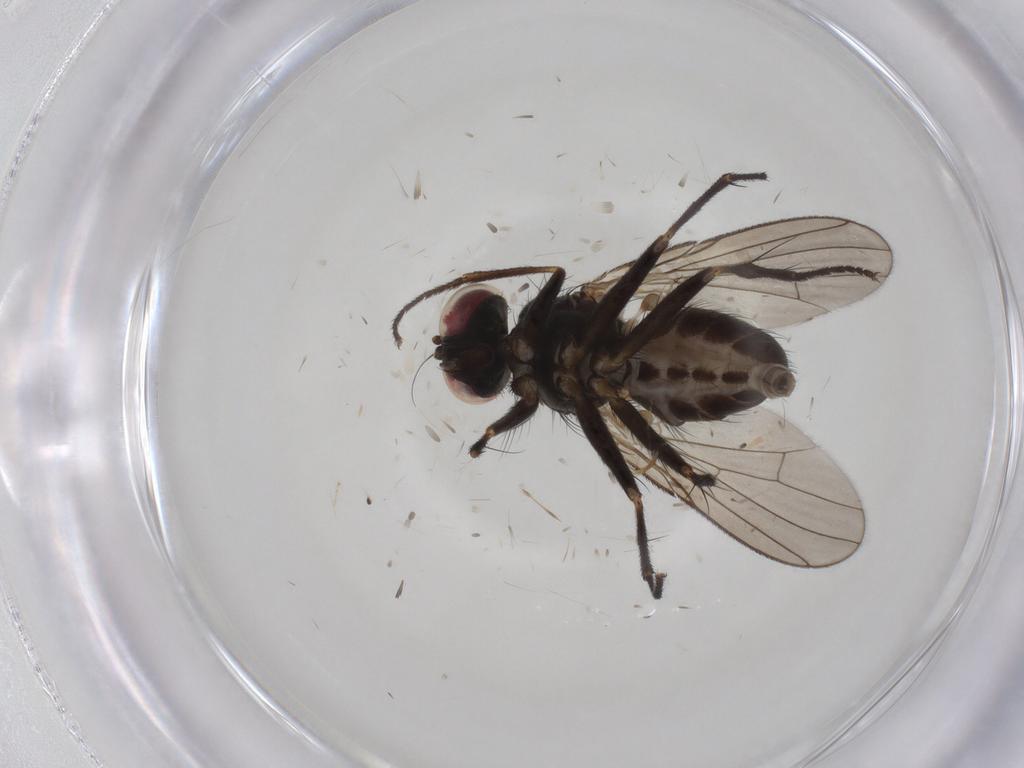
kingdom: Animalia
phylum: Arthropoda
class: Insecta
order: Diptera
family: Milichiidae
